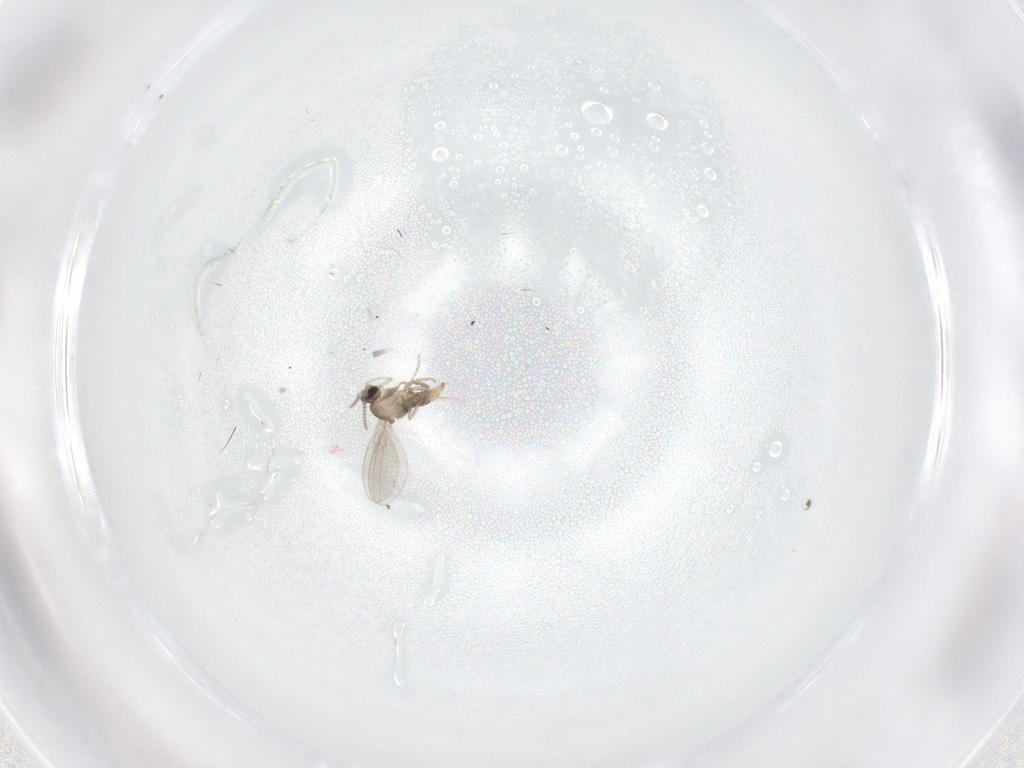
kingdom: Animalia
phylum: Arthropoda
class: Insecta
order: Diptera
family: Cecidomyiidae
